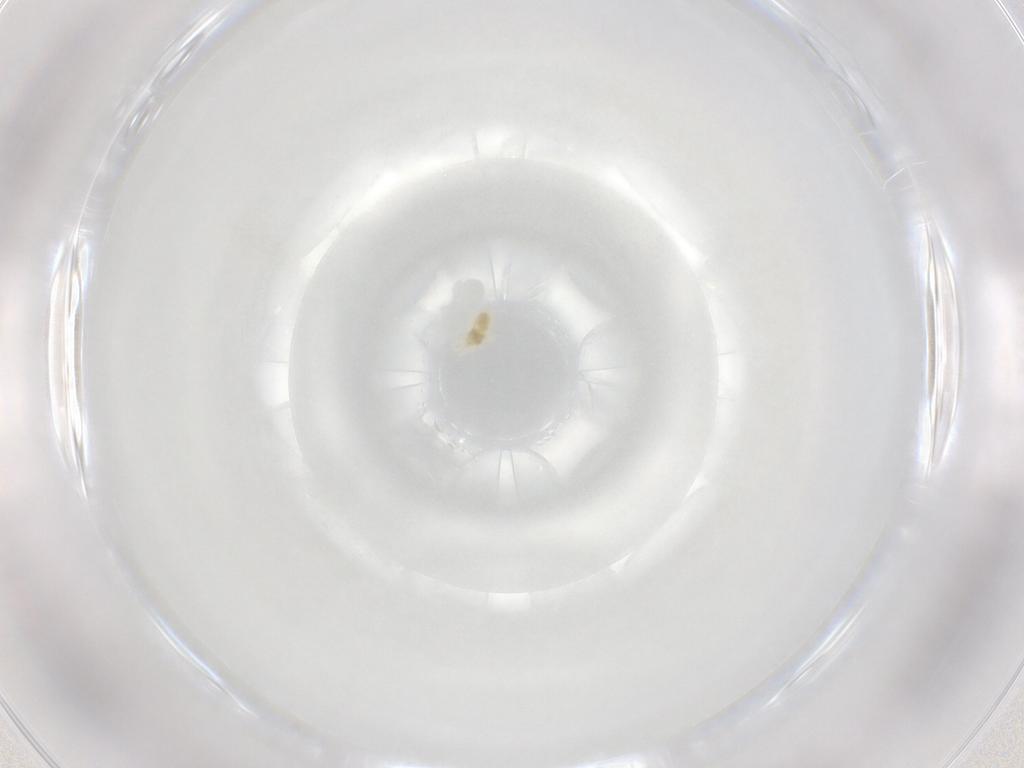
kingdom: Animalia
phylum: Arthropoda
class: Arachnida
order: Trombidiformes
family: Eupodidae
